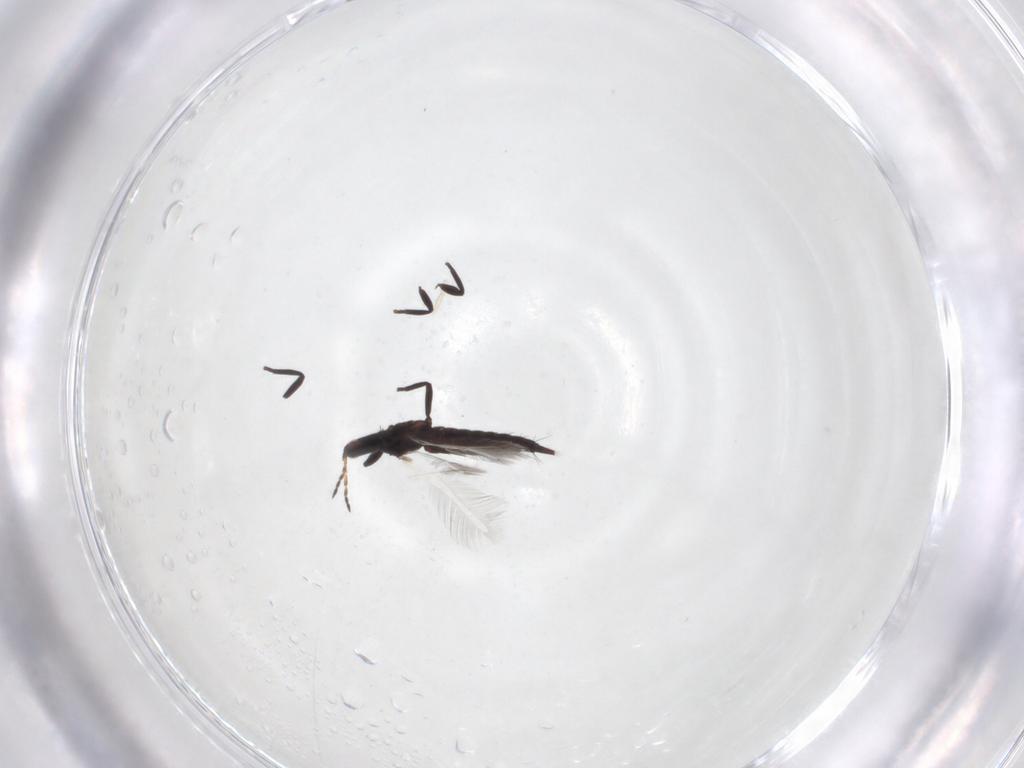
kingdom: Animalia
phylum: Arthropoda
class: Insecta
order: Thysanoptera
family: Phlaeothripidae
